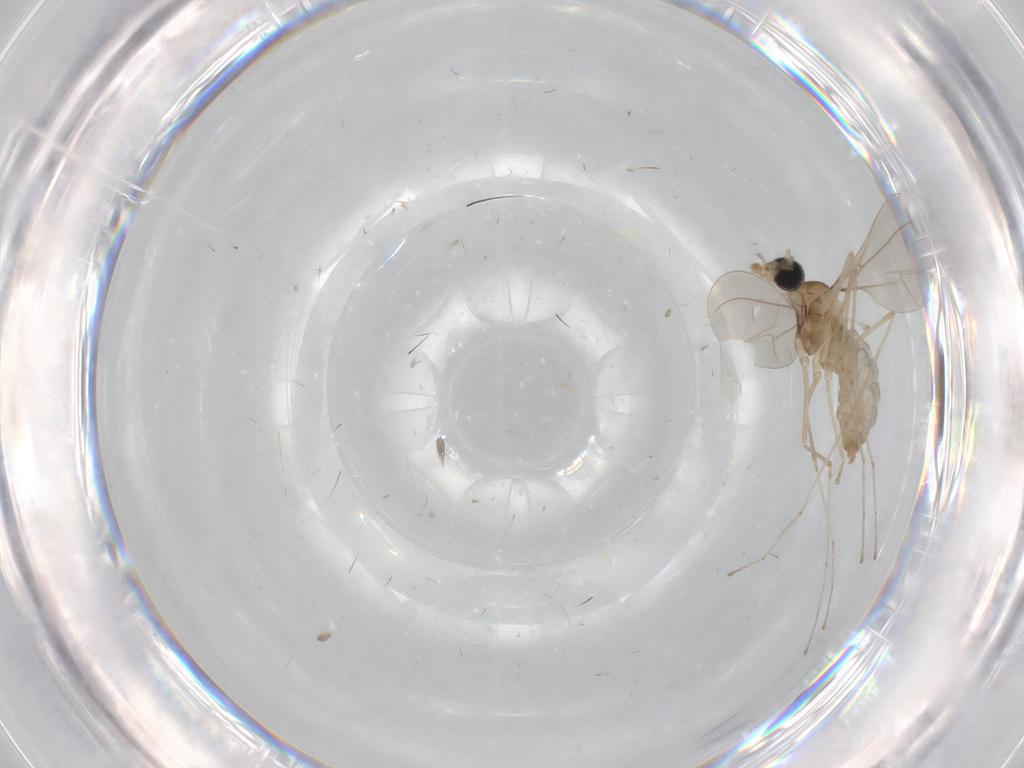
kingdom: Animalia
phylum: Arthropoda
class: Insecta
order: Diptera
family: Cecidomyiidae
